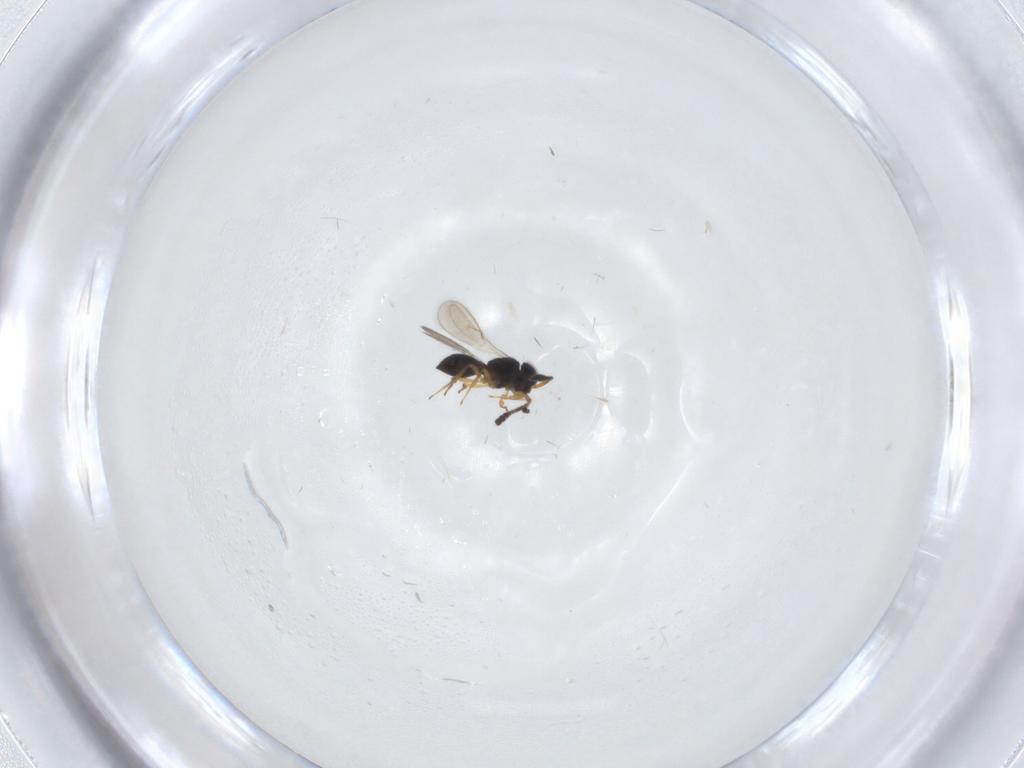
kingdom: Animalia
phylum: Arthropoda
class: Insecta
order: Hymenoptera
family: Scelionidae
